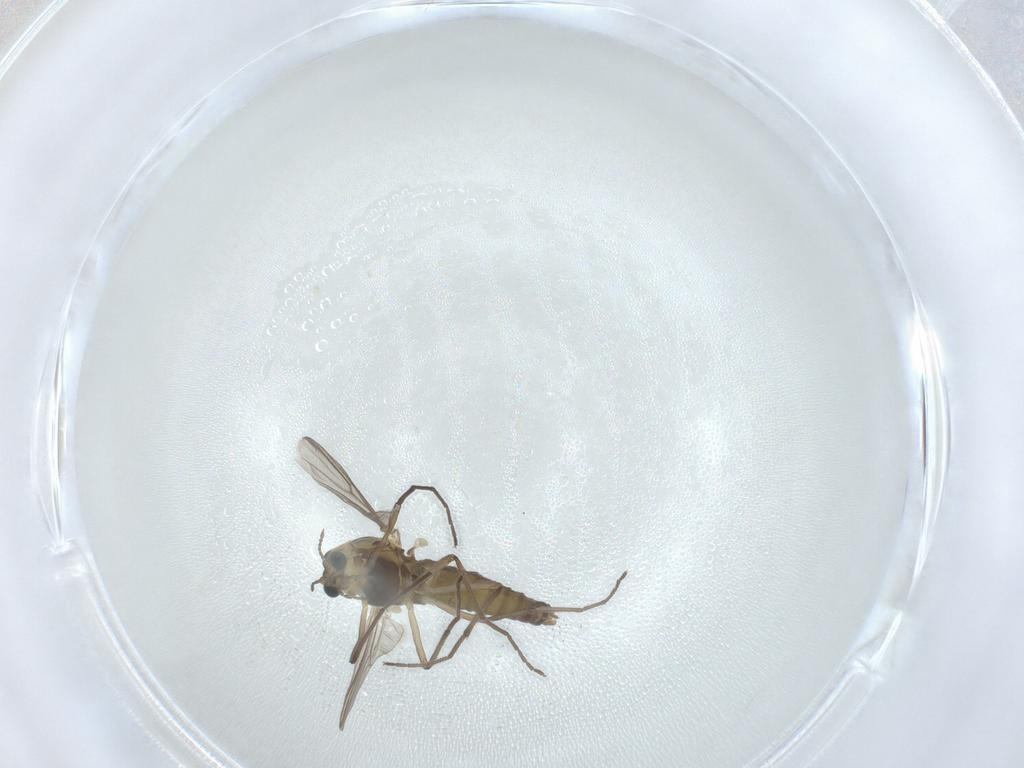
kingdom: Animalia
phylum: Arthropoda
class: Insecta
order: Diptera
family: Chironomidae
